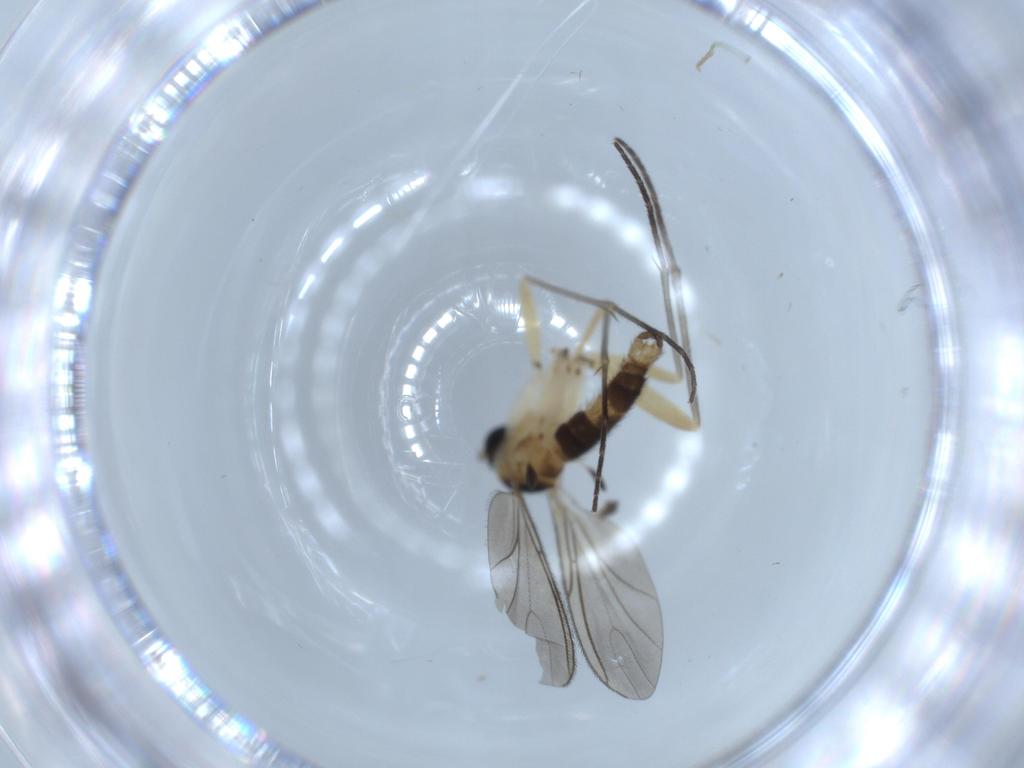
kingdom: Animalia
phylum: Arthropoda
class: Insecta
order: Diptera
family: Sciaridae
